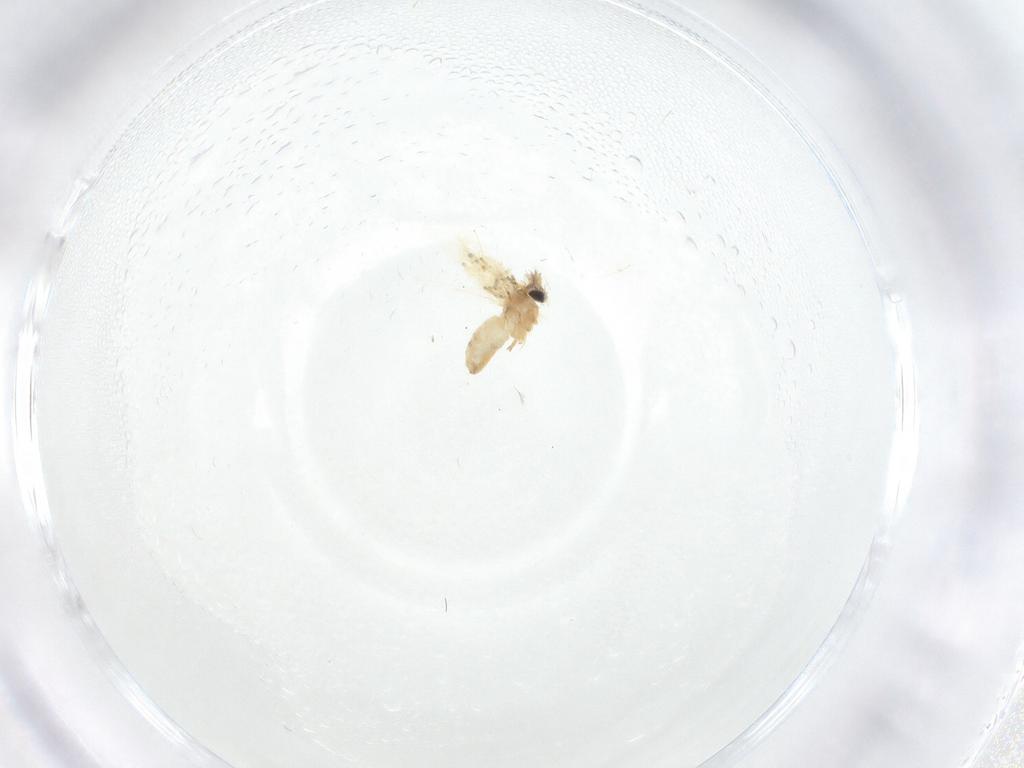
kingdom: Animalia
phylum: Arthropoda
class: Insecta
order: Lepidoptera
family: Crambidae
